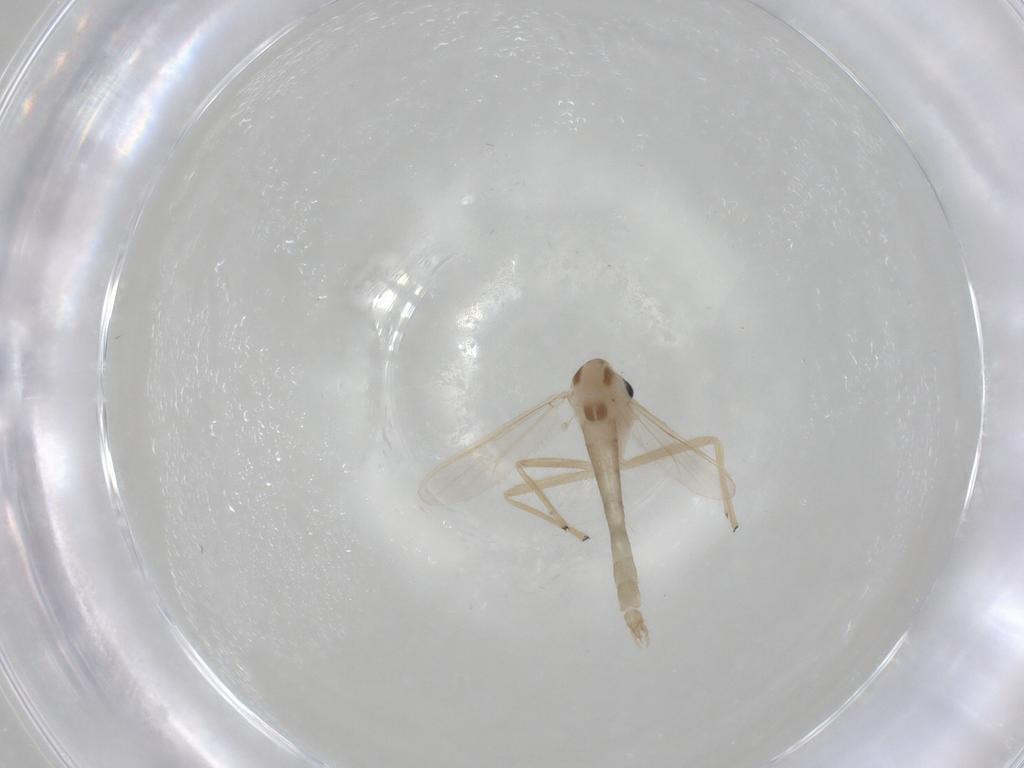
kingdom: Animalia
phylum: Arthropoda
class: Insecta
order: Diptera
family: Chironomidae
